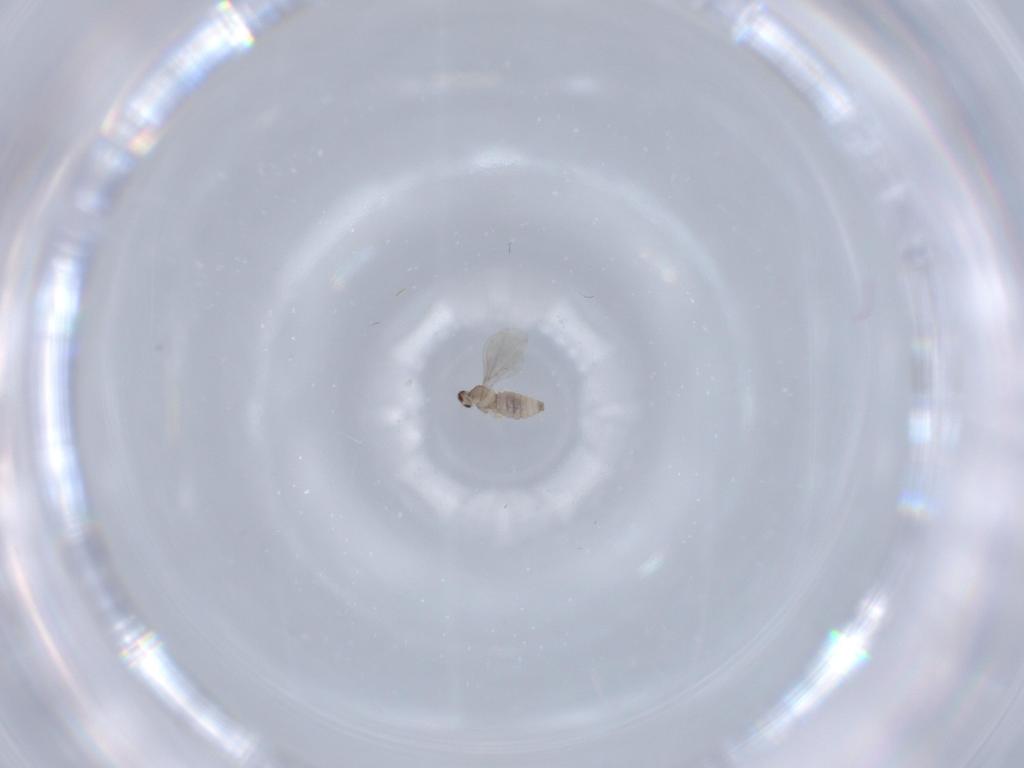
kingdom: Animalia
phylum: Arthropoda
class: Insecta
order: Diptera
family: Cecidomyiidae
